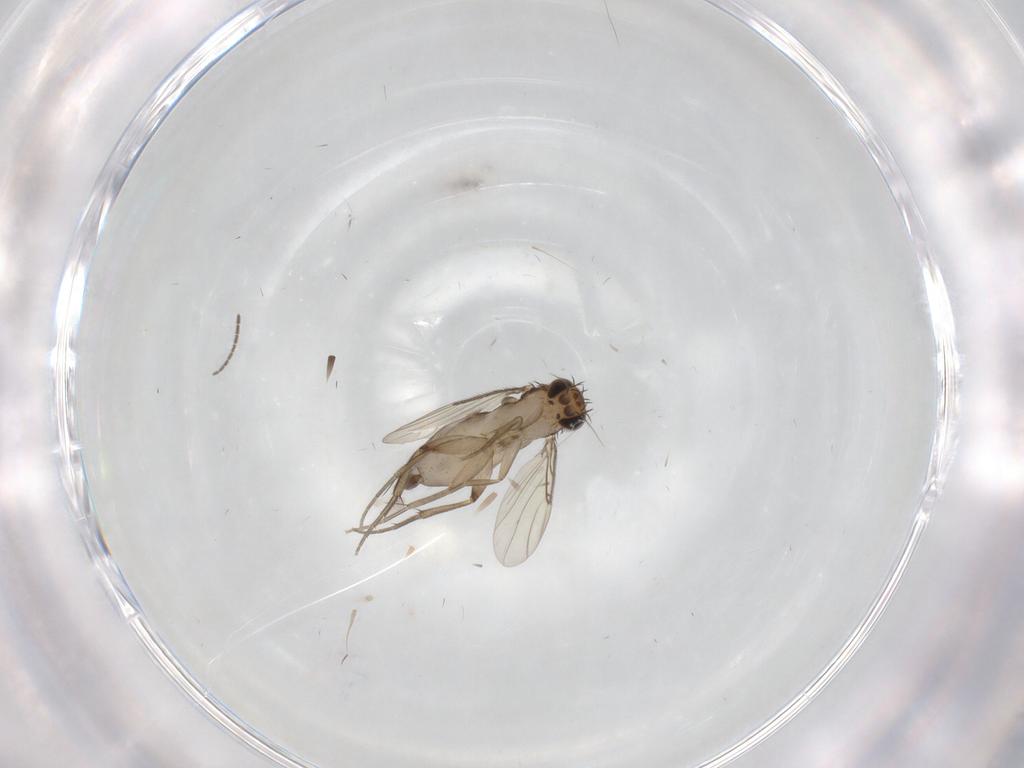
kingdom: Animalia
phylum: Arthropoda
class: Insecta
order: Diptera
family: Phoridae
